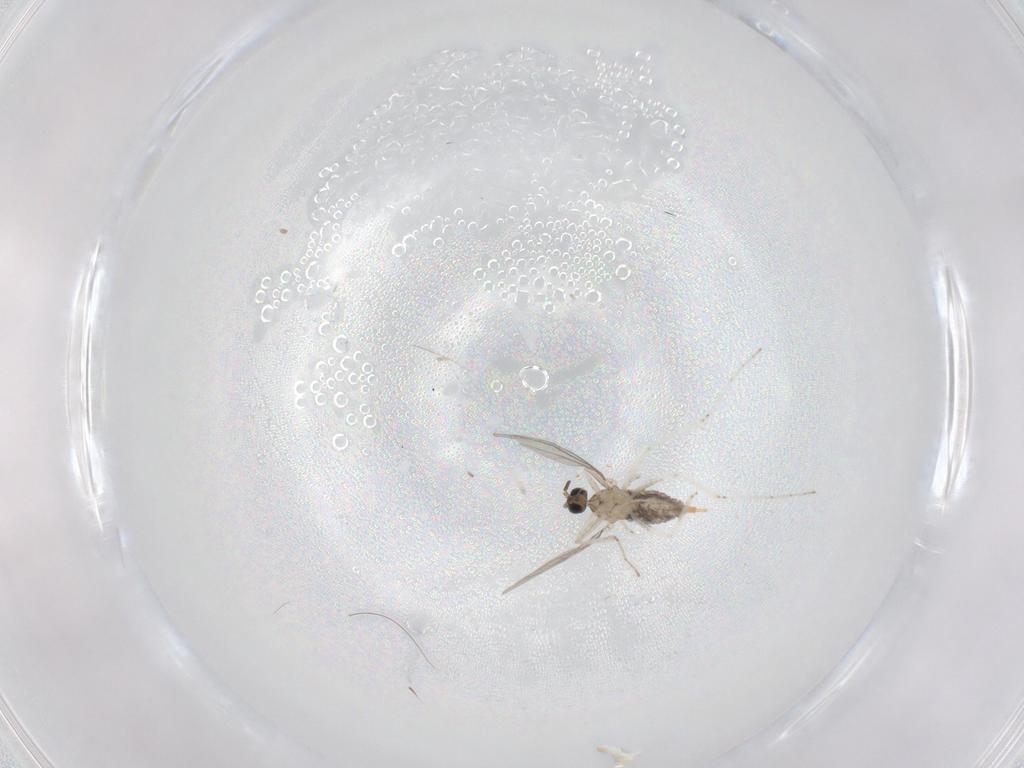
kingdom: Animalia
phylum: Arthropoda
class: Insecta
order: Diptera
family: Cecidomyiidae
